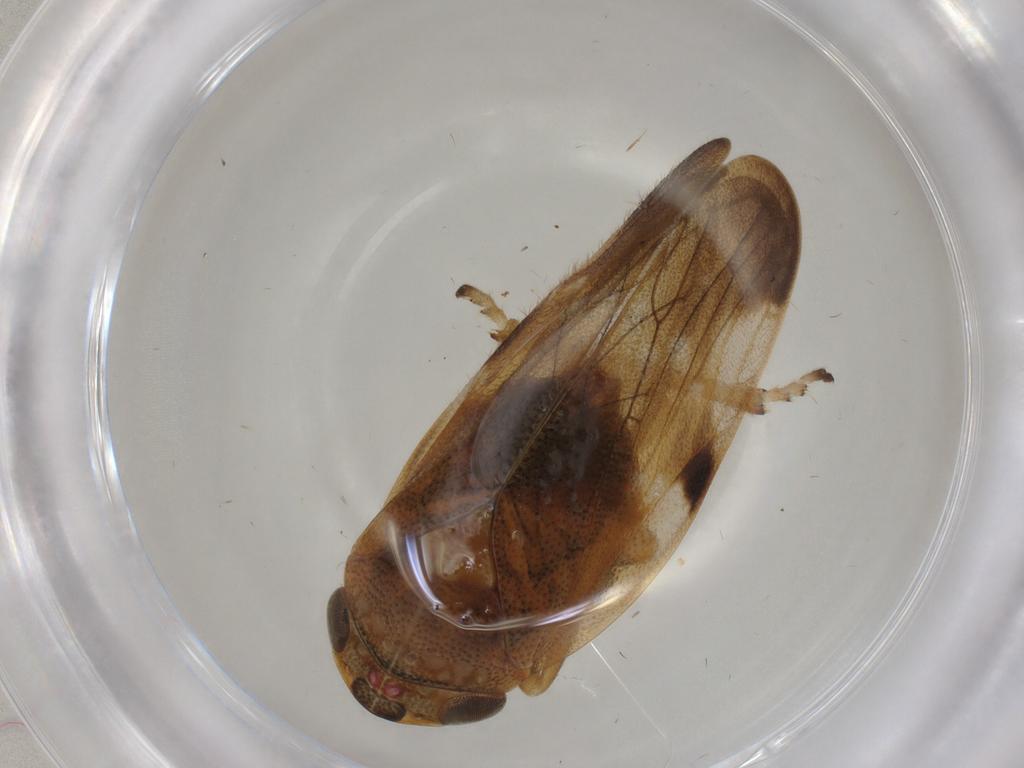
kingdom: Animalia
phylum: Arthropoda
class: Insecta
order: Hemiptera
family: Aphrophoridae
